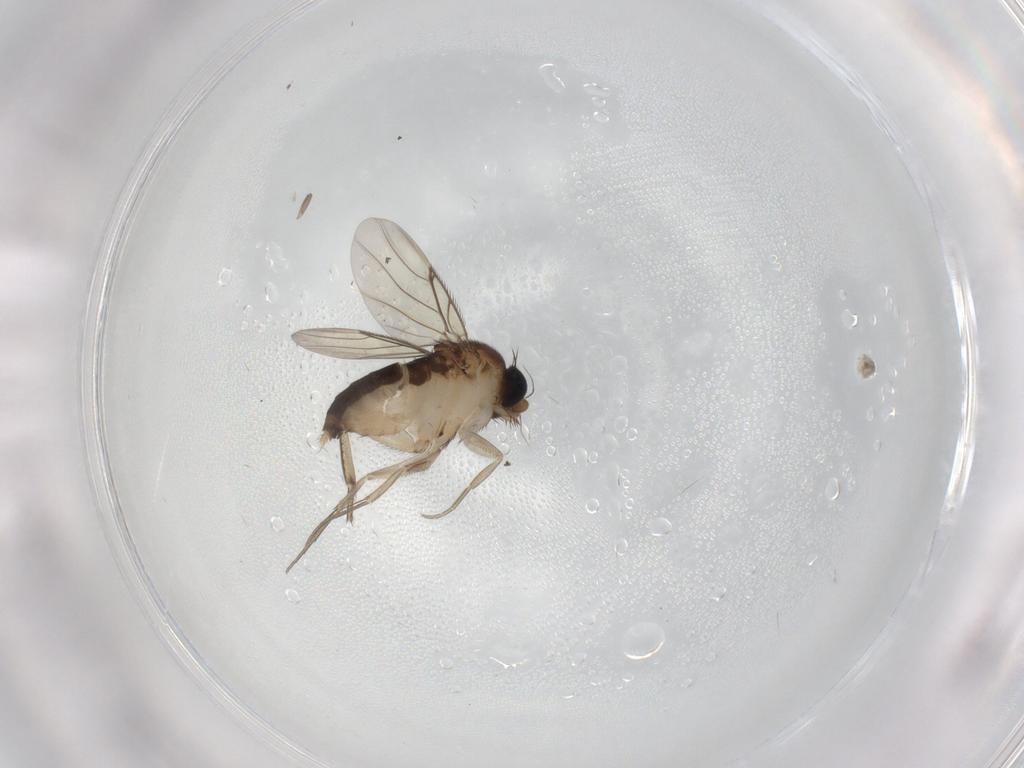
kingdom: Animalia
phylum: Arthropoda
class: Insecta
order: Diptera
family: Phoridae
